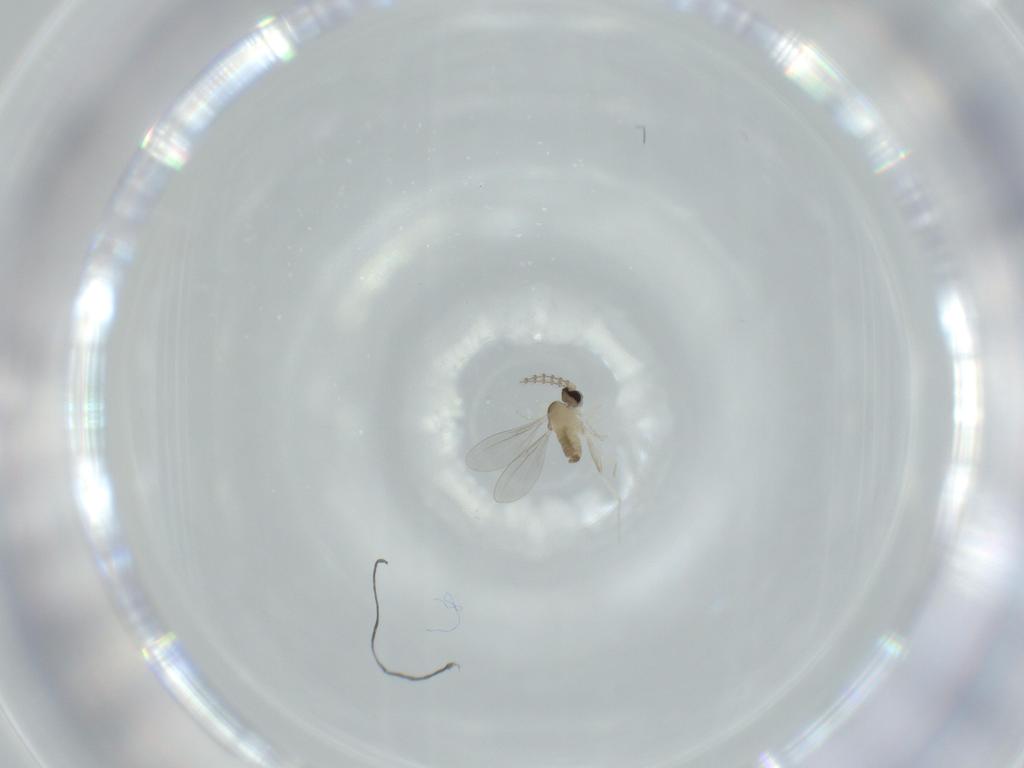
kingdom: Animalia
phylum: Arthropoda
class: Insecta
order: Diptera
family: Cecidomyiidae
